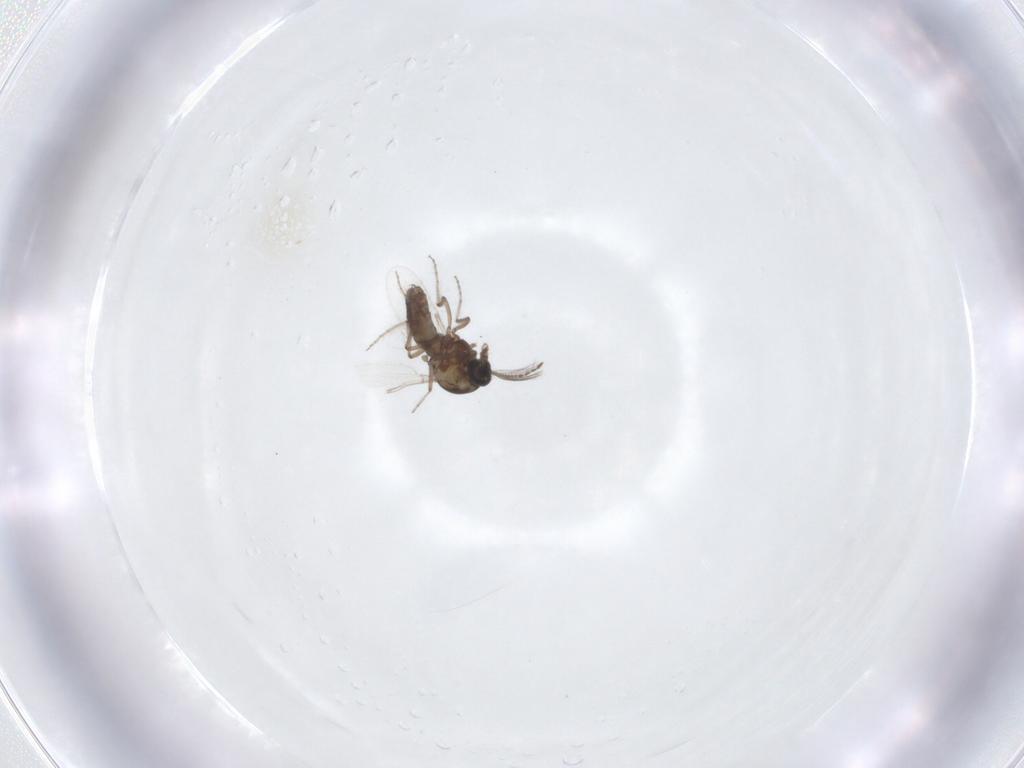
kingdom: Animalia
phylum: Arthropoda
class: Insecta
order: Diptera
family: Ceratopogonidae
